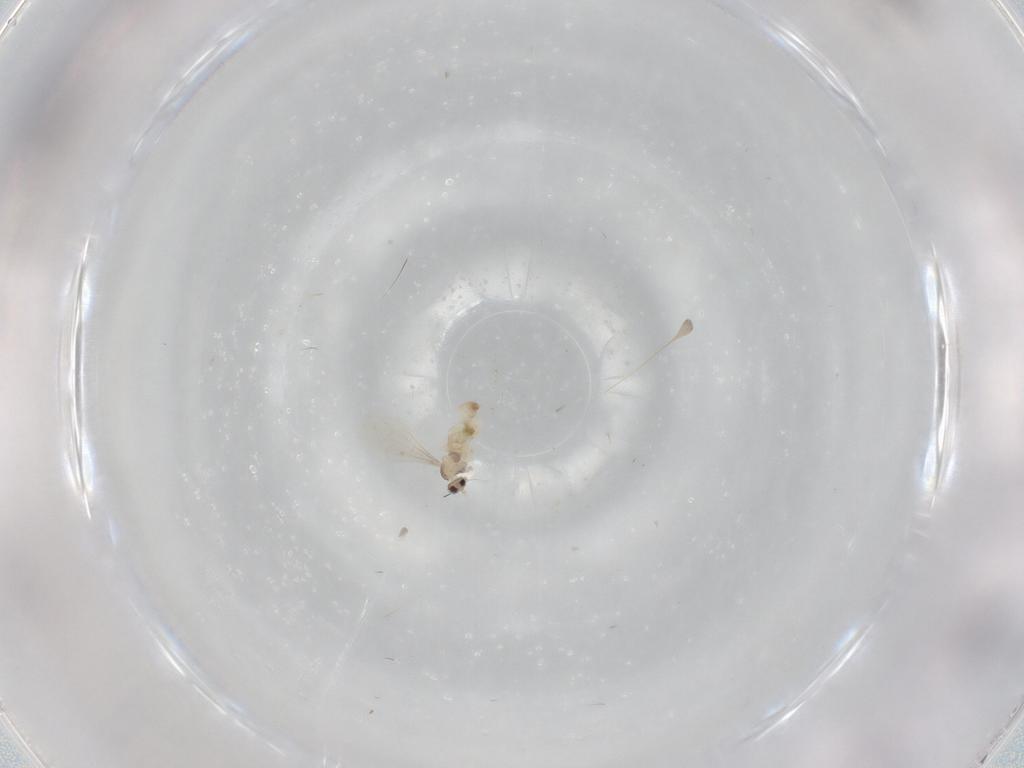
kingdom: Animalia
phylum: Arthropoda
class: Insecta
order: Diptera
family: Cecidomyiidae
